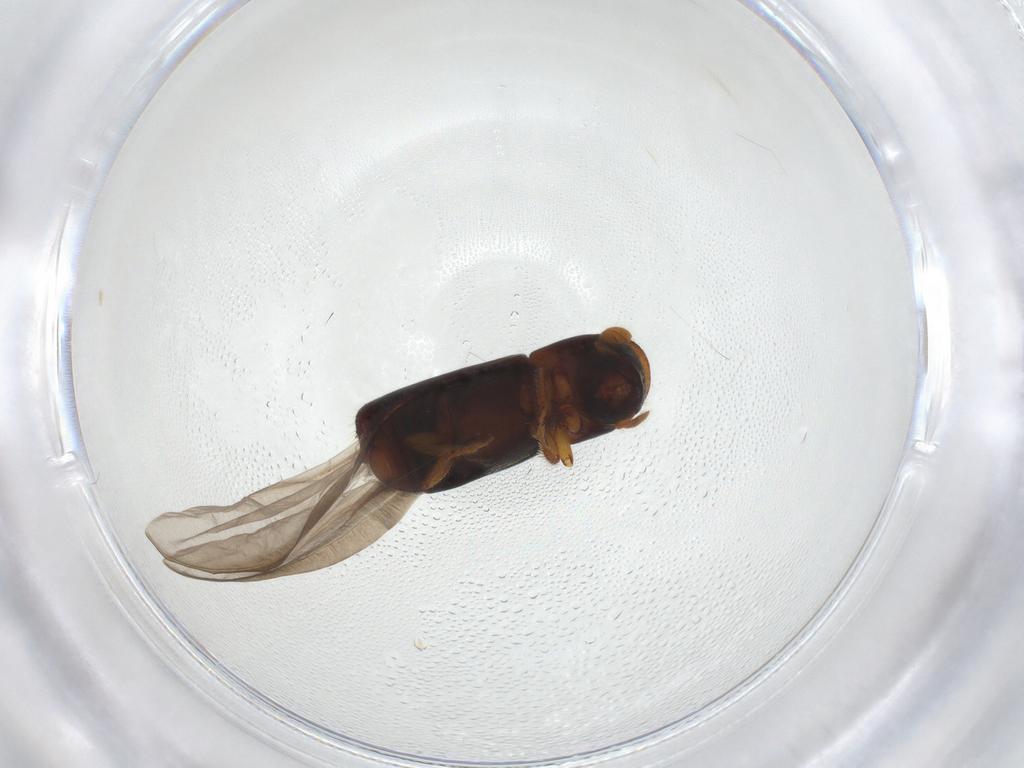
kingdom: Animalia
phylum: Arthropoda
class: Insecta
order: Coleoptera
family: Curculionidae
